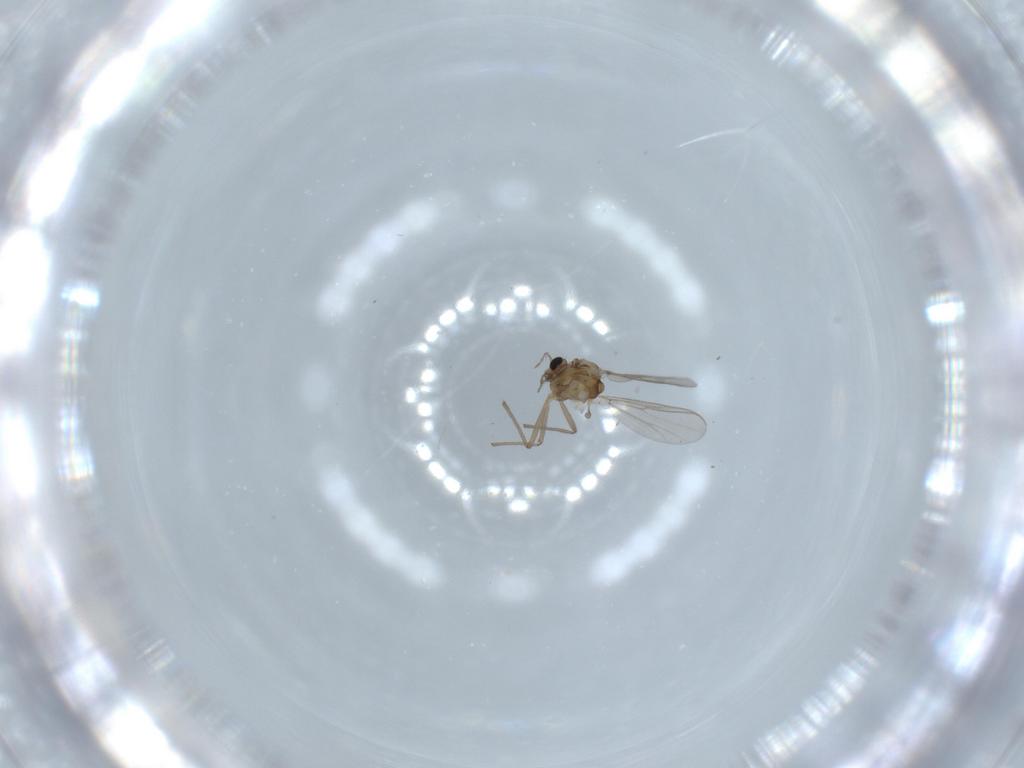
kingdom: Animalia
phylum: Arthropoda
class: Insecta
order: Diptera
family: Chironomidae
